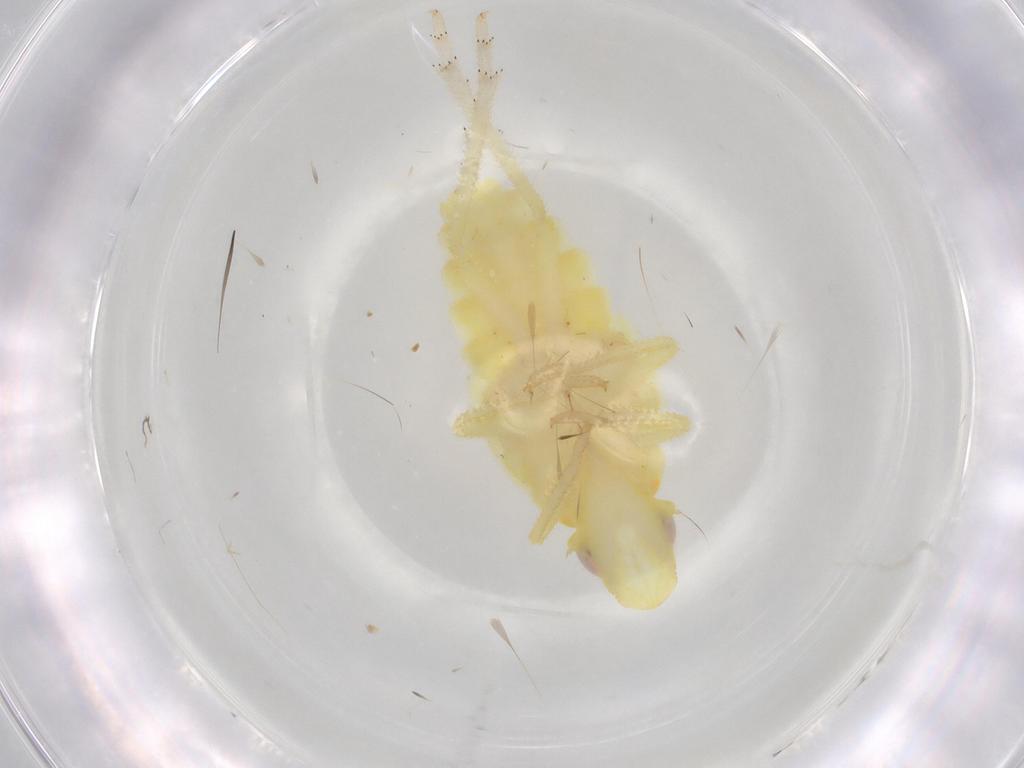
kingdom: Animalia
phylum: Arthropoda
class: Insecta
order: Hemiptera
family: Tropiduchidae
